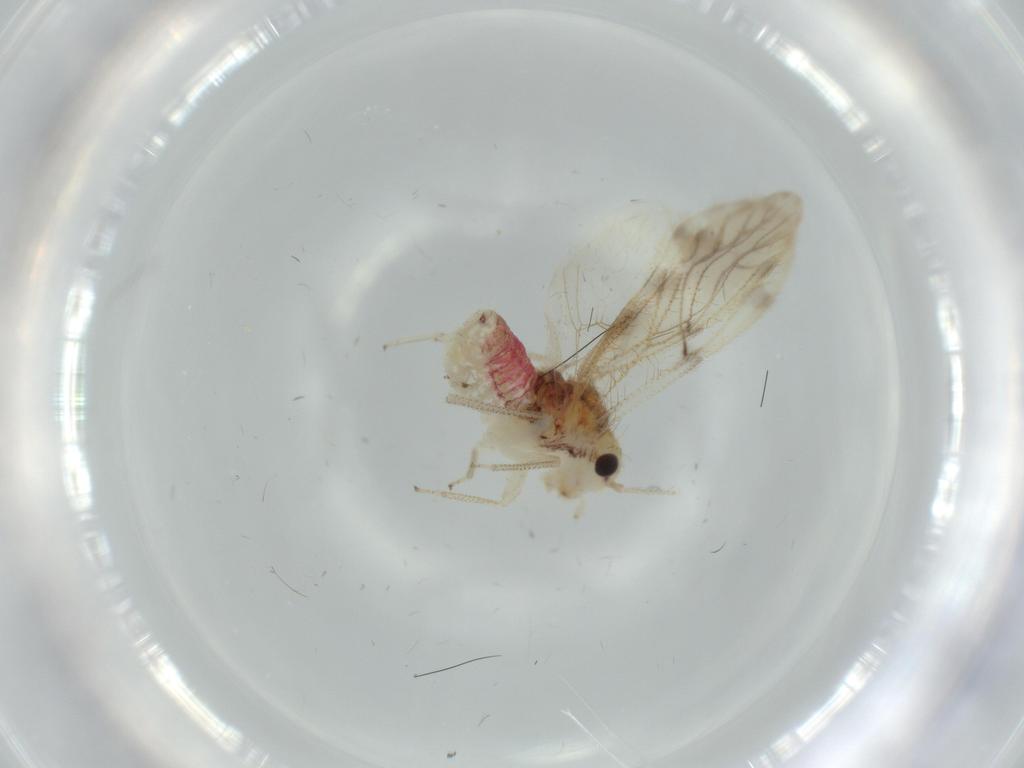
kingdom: Animalia
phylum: Arthropoda
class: Insecta
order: Psocodea
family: Pseudocaeciliidae
